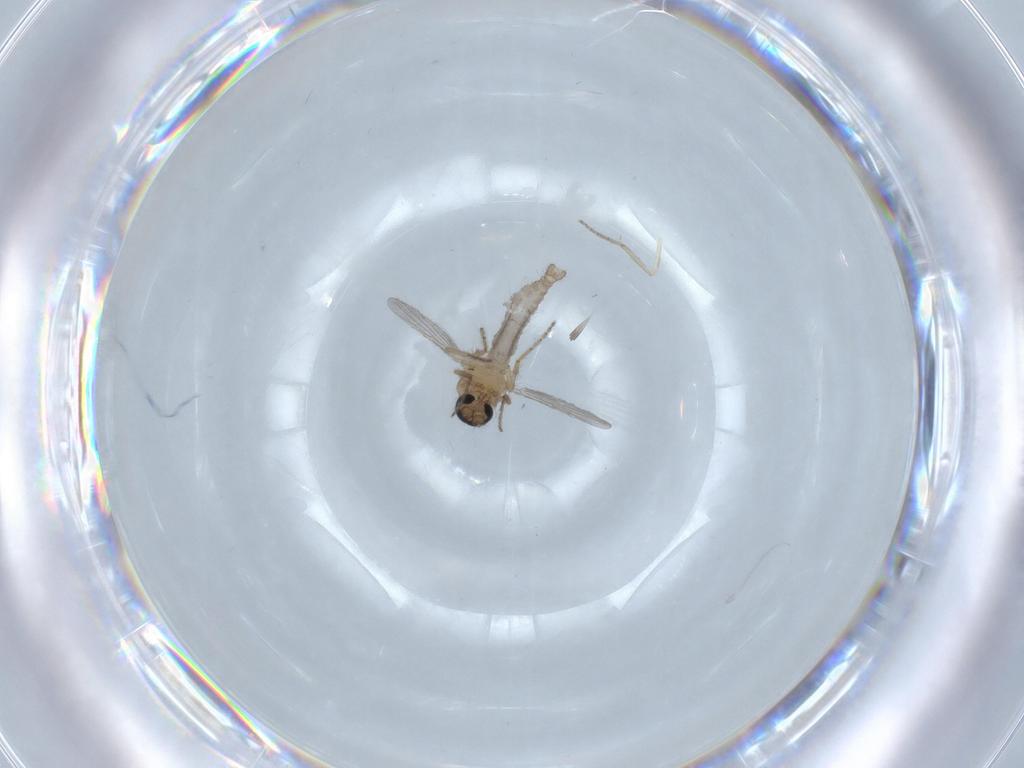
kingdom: Animalia
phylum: Arthropoda
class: Insecta
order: Diptera
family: Ceratopogonidae
